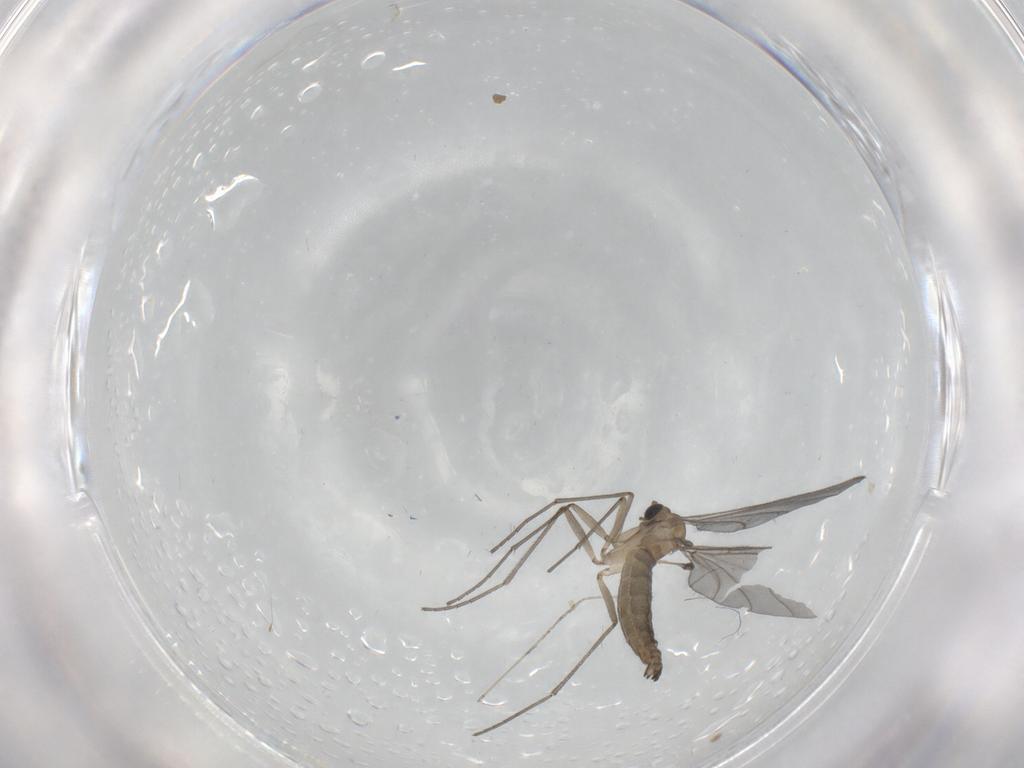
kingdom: Animalia
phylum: Arthropoda
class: Insecta
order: Diptera
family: Sciaridae
